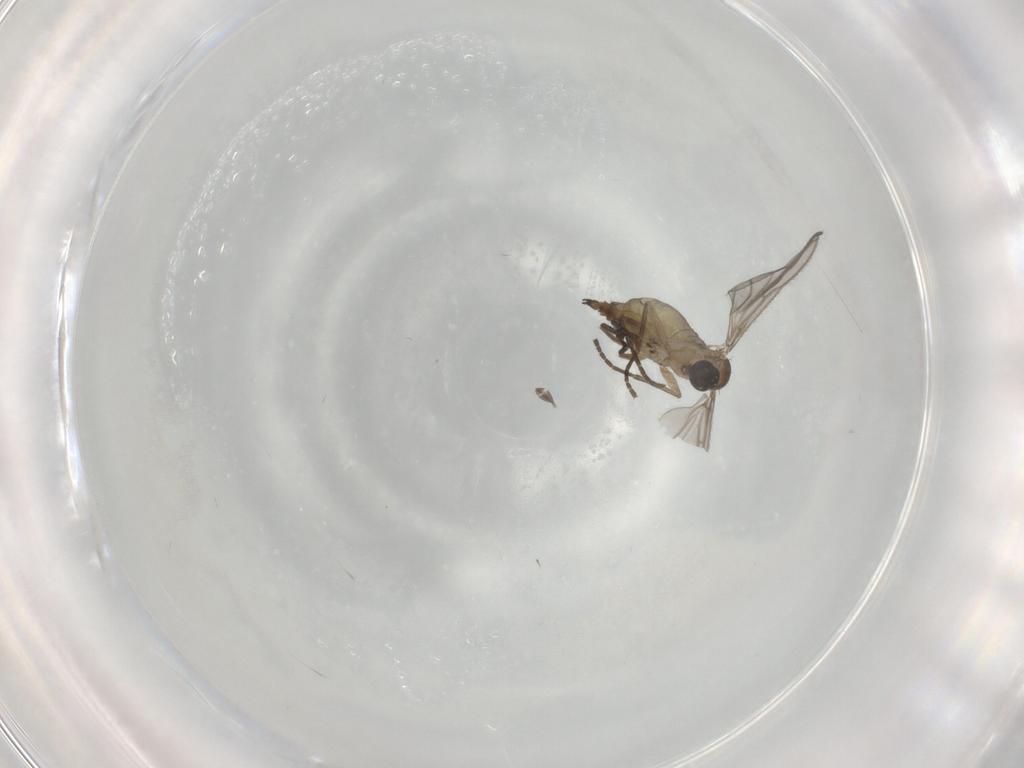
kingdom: Animalia
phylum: Arthropoda
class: Insecta
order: Diptera
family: Sciaridae
